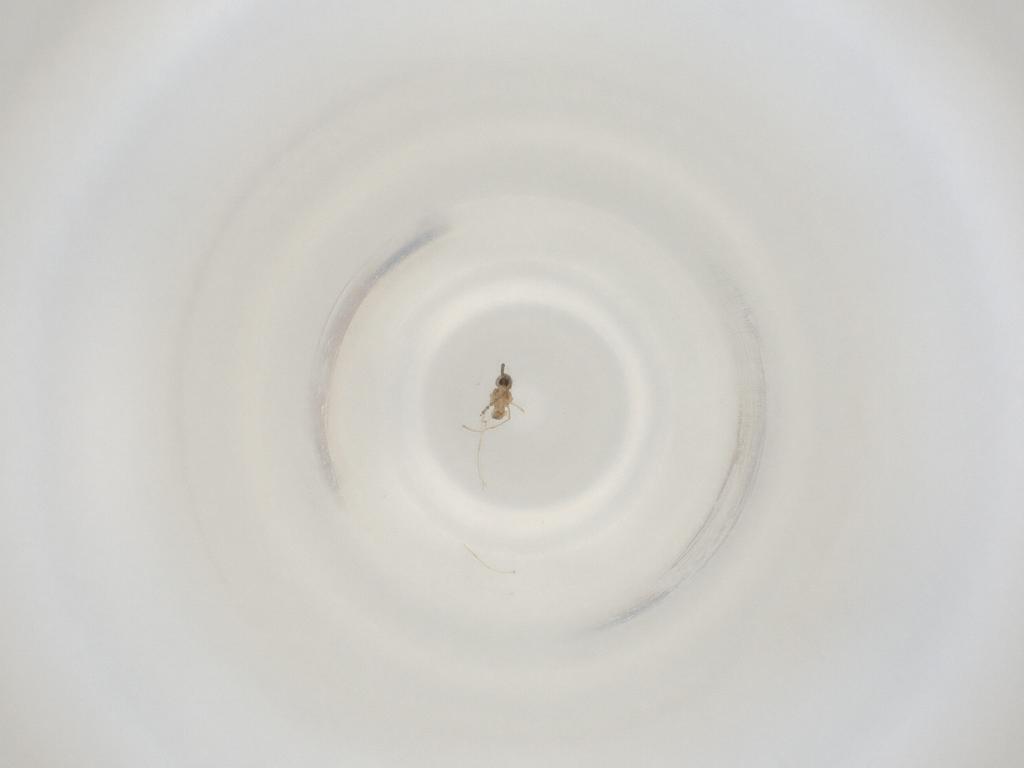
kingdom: Animalia
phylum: Arthropoda
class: Insecta
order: Diptera
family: Cecidomyiidae
